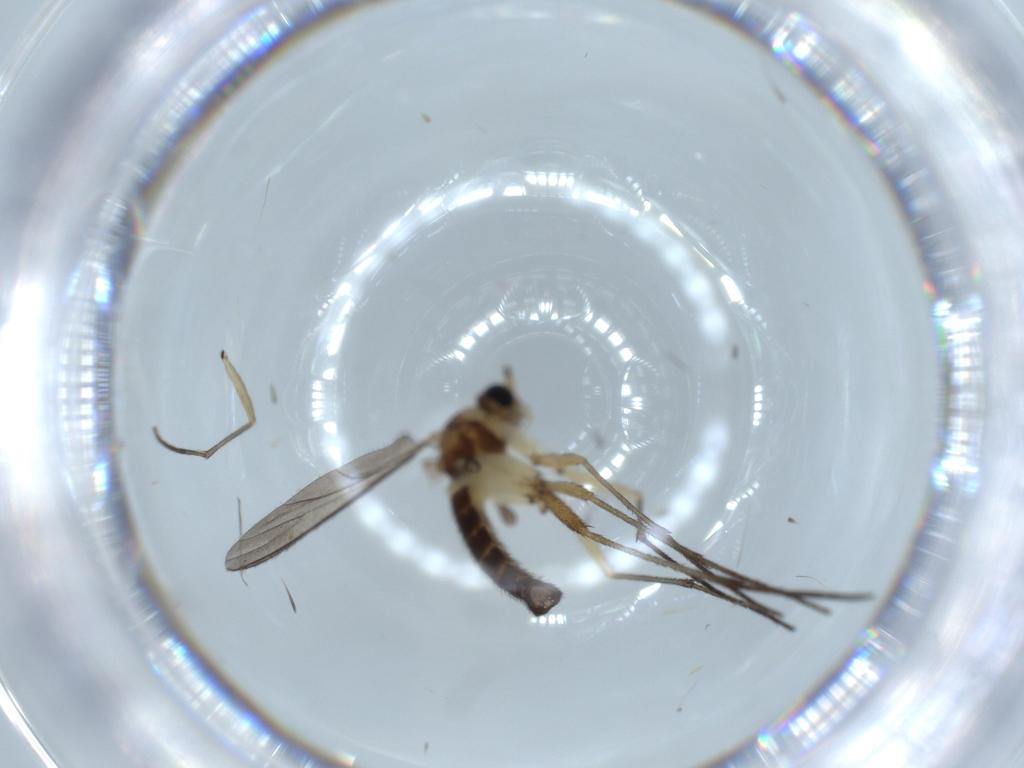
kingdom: Animalia
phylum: Arthropoda
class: Insecta
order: Diptera
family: Sciaridae
